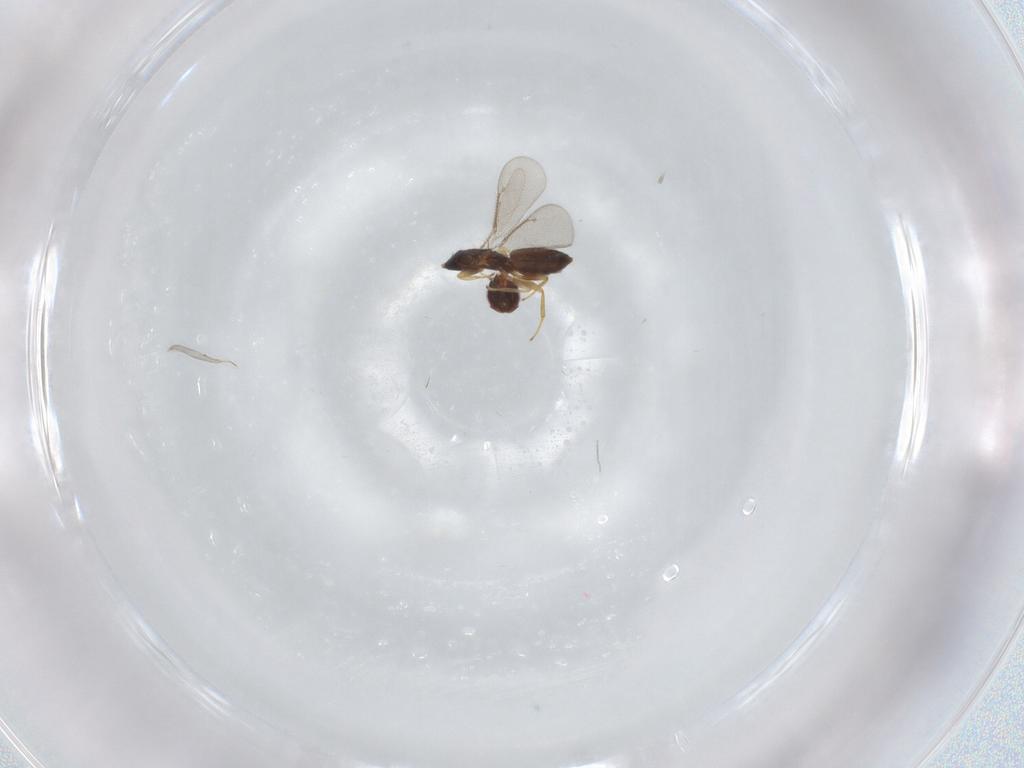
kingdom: Animalia
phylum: Arthropoda
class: Insecta
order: Hymenoptera
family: Eulophidae
